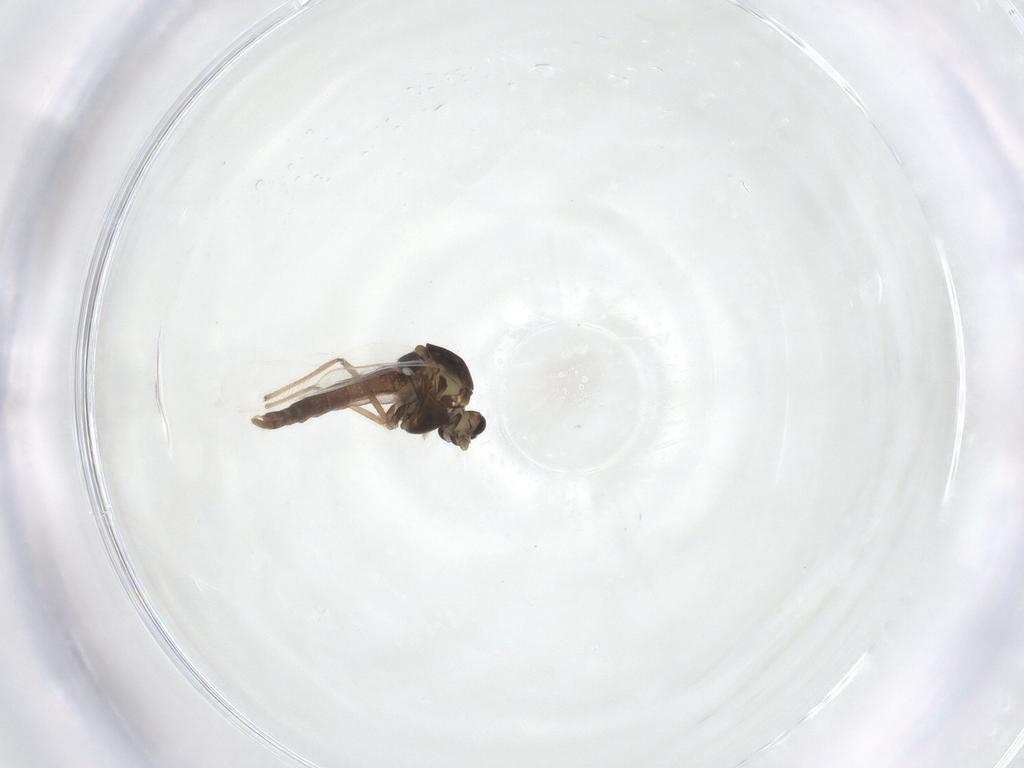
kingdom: Animalia
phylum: Arthropoda
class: Insecta
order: Diptera
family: Chironomidae
